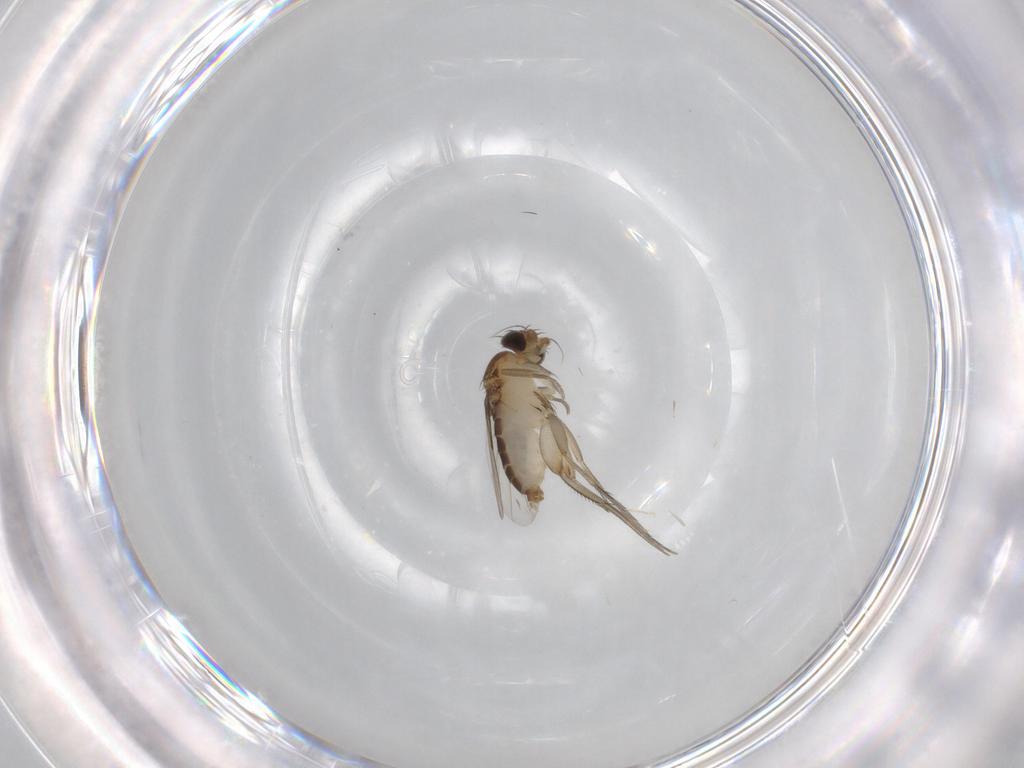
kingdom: Animalia
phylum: Arthropoda
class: Insecta
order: Diptera
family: Phoridae
